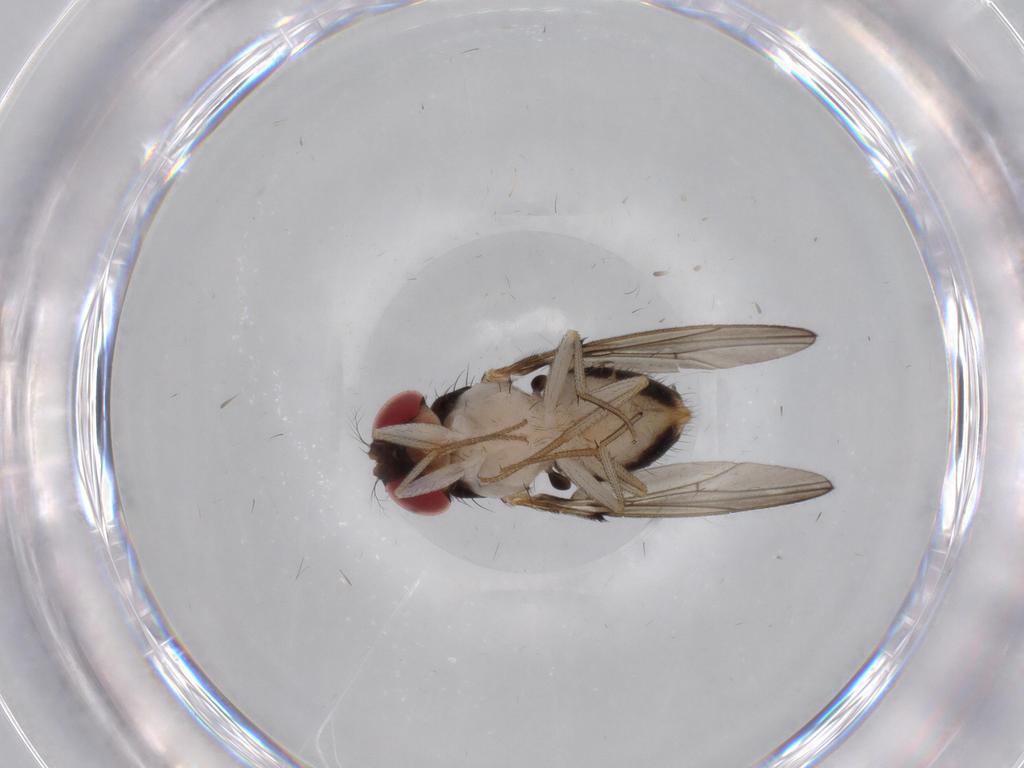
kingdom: Animalia
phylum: Arthropoda
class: Insecta
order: Diptera
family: Drosophilidae
